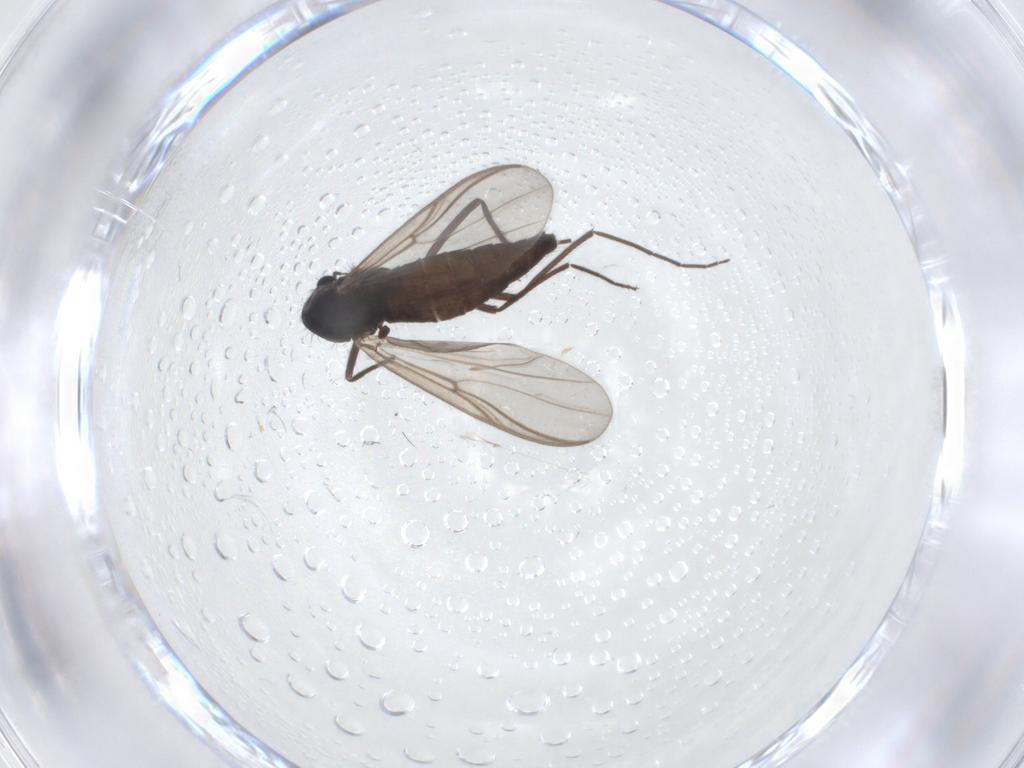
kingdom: Animalia
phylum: Arthropoda
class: Insecta
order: Diptera
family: Chironomidae
